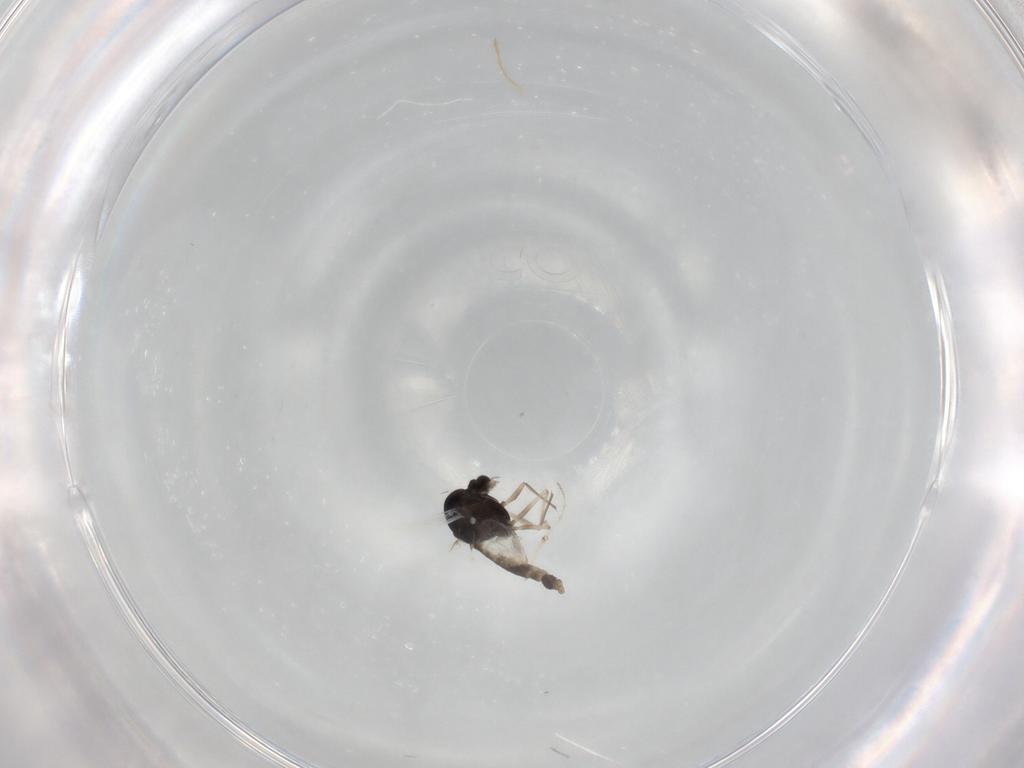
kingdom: Animalia
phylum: Arthropoda
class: Insecta
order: Diptera
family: Chironomidae
